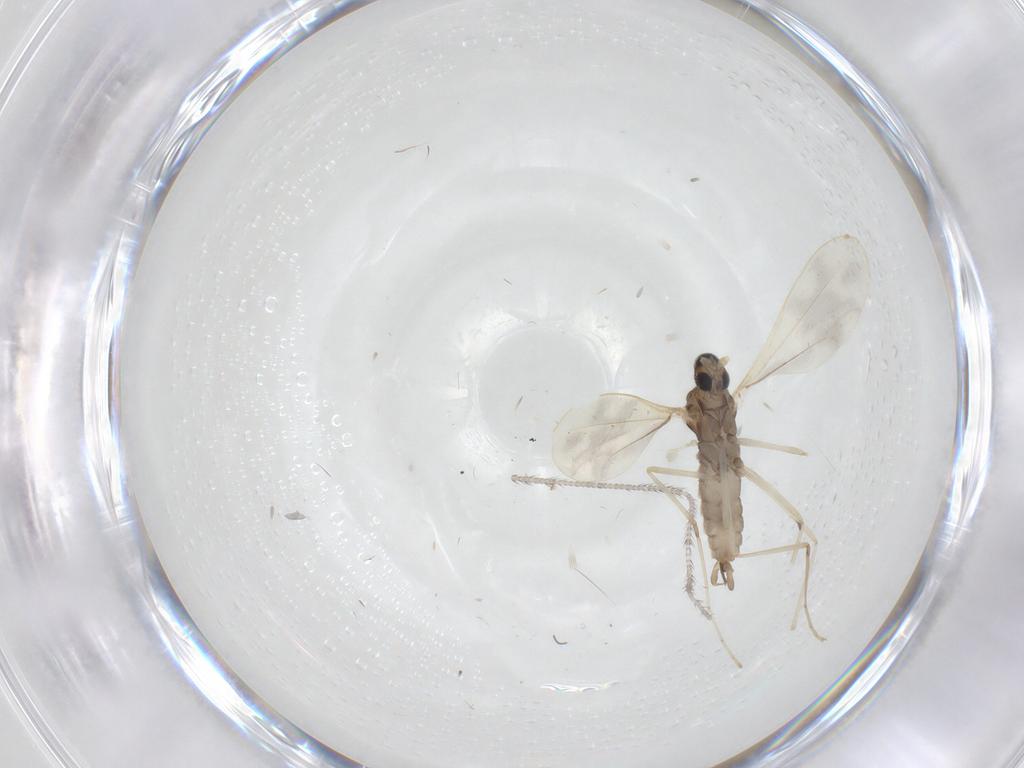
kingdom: Animalia
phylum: Arthropoda
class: Insecta
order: Diptera
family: Cecidomyiidae
